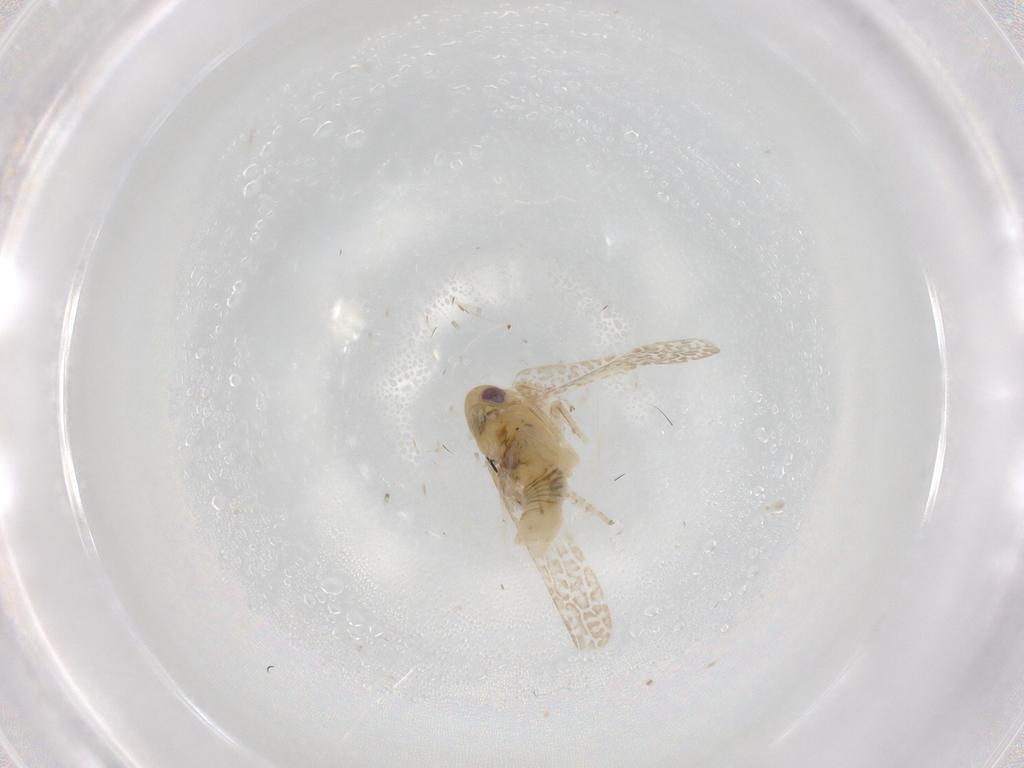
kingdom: Animalia
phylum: Arthropoda
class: Insecta
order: Hemiptera
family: Cicadellidae
